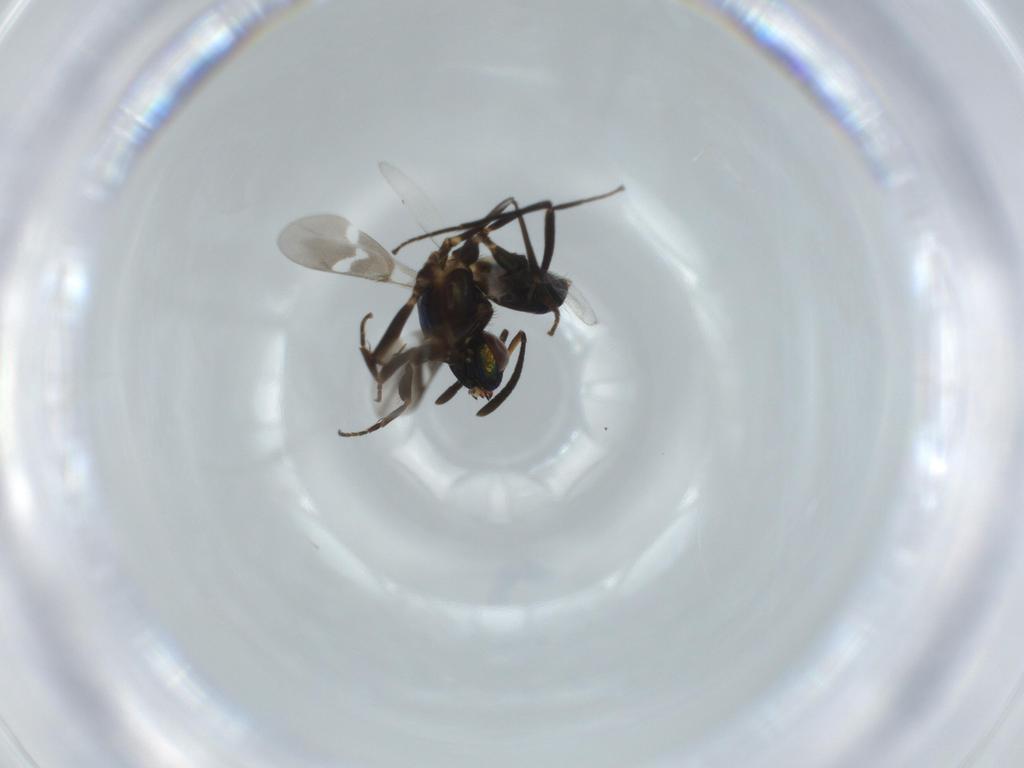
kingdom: Animalia
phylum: Arthropoda
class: Insecta
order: Hymenoptera
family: Eupelmidae
